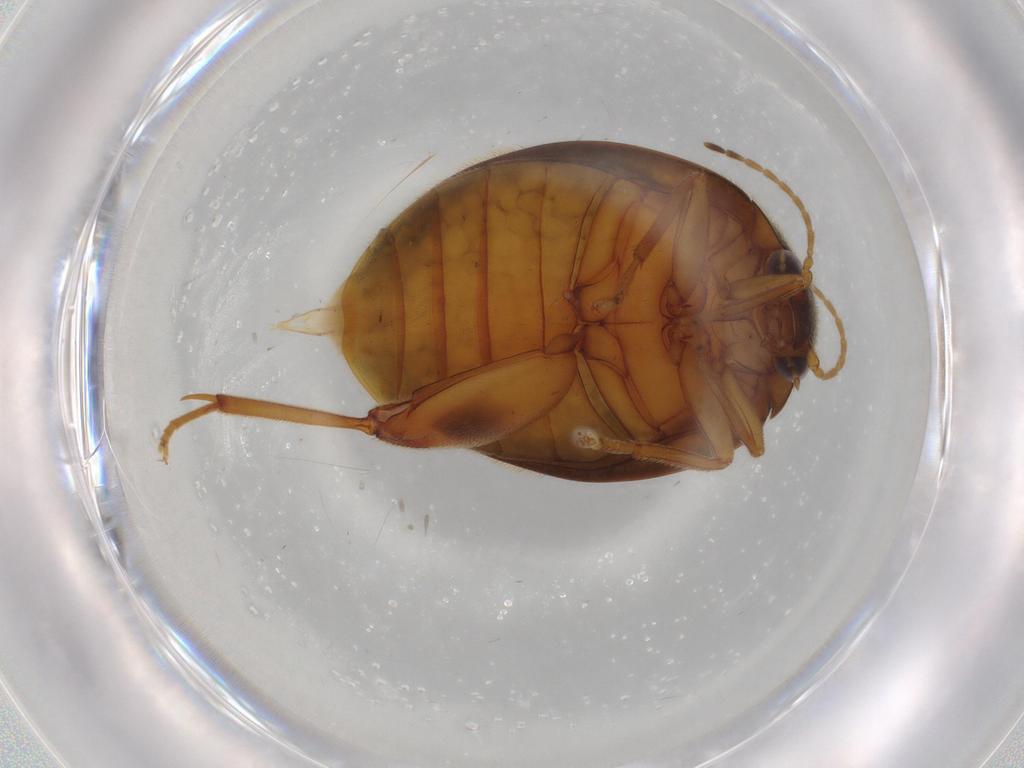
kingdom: Animalia
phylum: Arthropoda
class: Insecta
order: Coleoptera
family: Scirtidae
